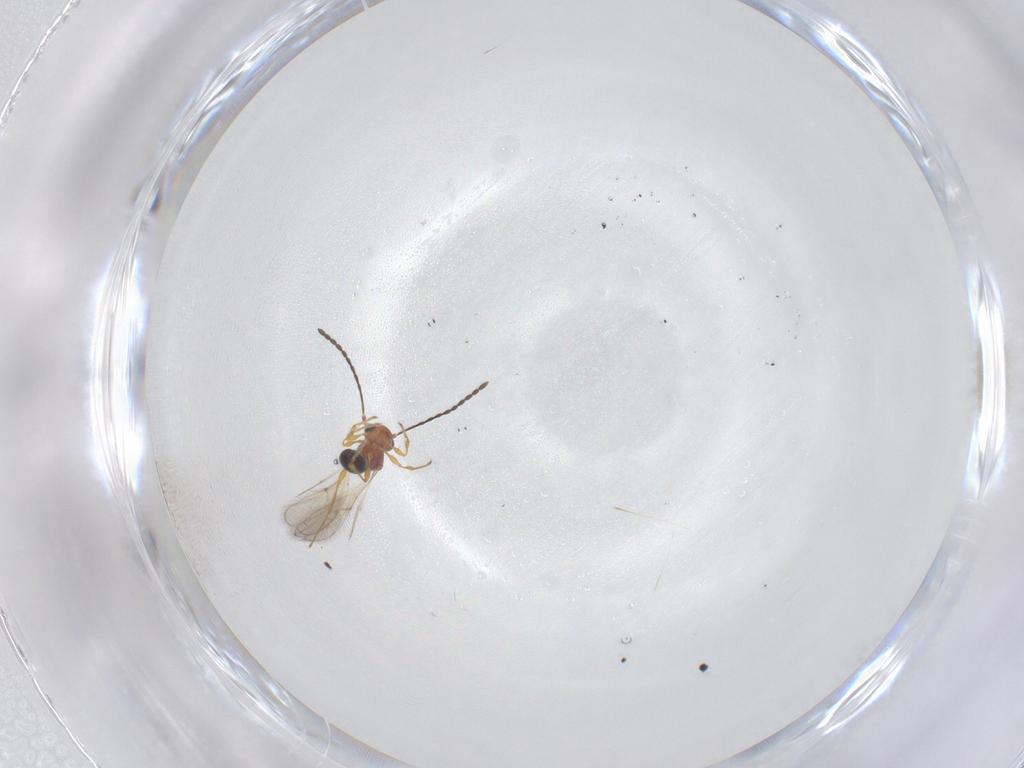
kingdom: Animalia
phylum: Arthropoda
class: Insecta
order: Hymenoptera
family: Diapriidae
